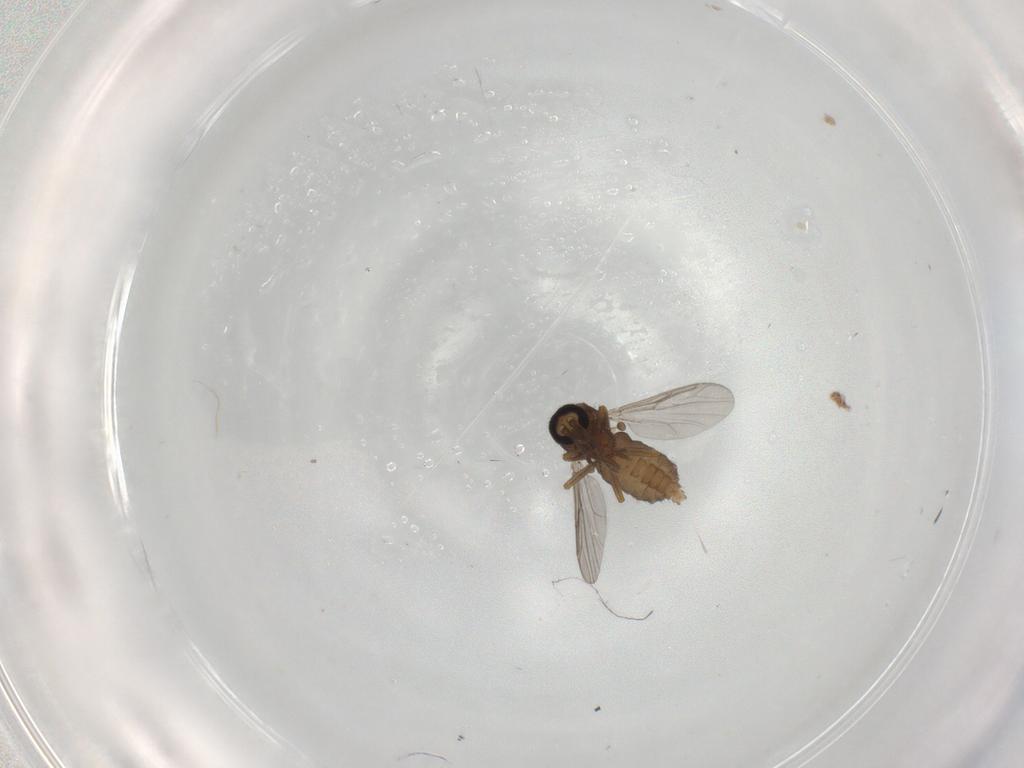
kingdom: Animalia
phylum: Arthropoda
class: Insecta
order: Diptera
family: Ceratopogonidae
